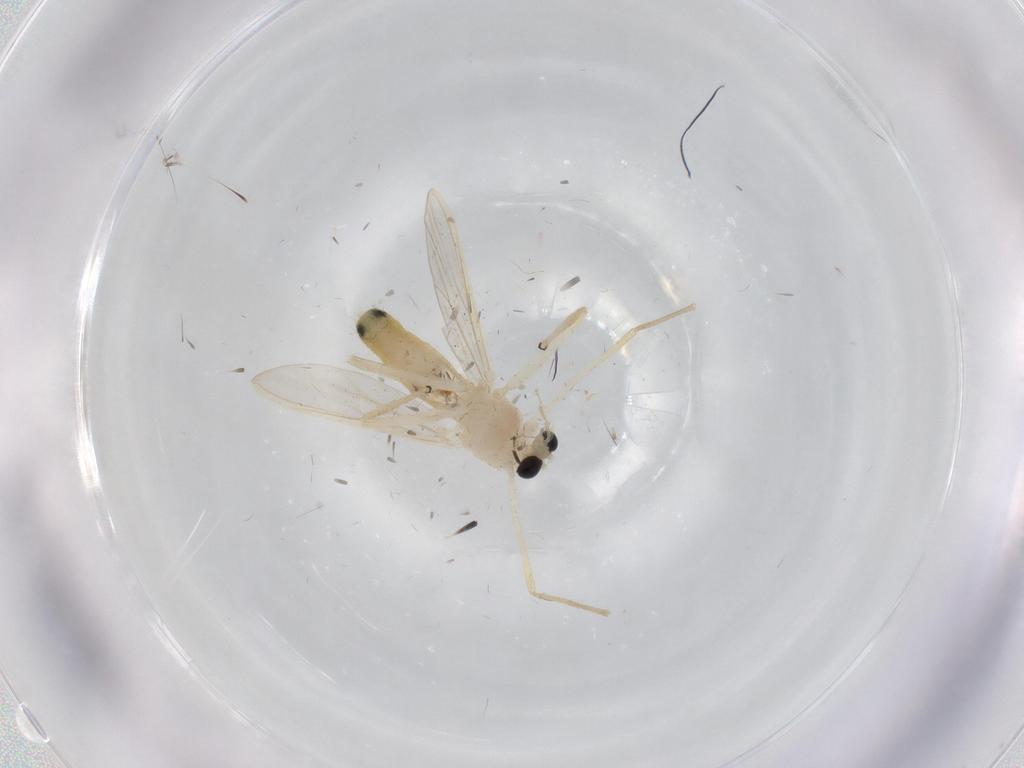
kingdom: Animalia
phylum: Arthropoda
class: Insecta
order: Diptera
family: Chironomidae
